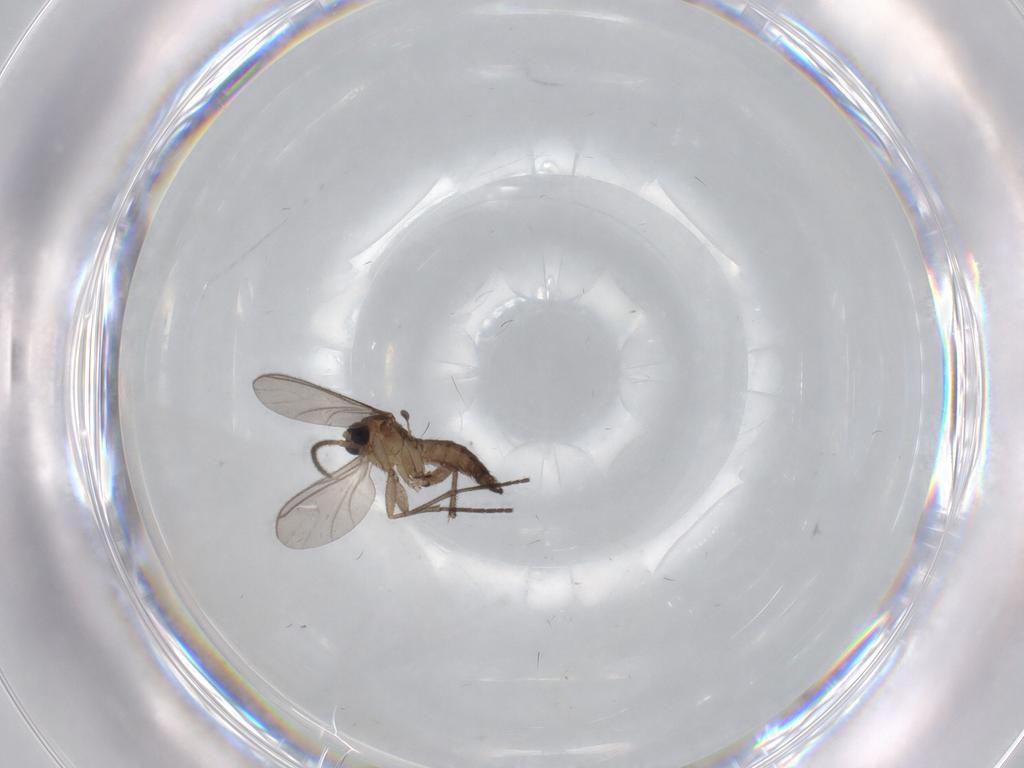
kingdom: Animalia
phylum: Arthropoda
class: Insecta
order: Diptera
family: Sciaridae
